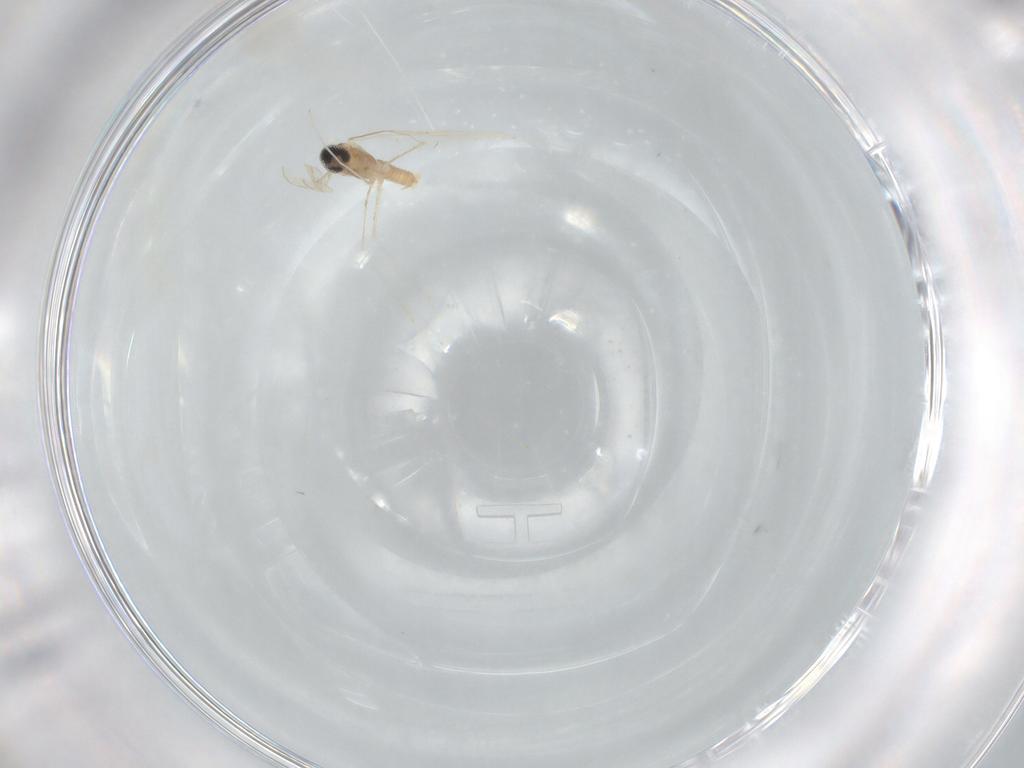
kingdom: Animalia
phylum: Arthropoda
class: Insecta
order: Diptera
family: Cecidomyiidae
